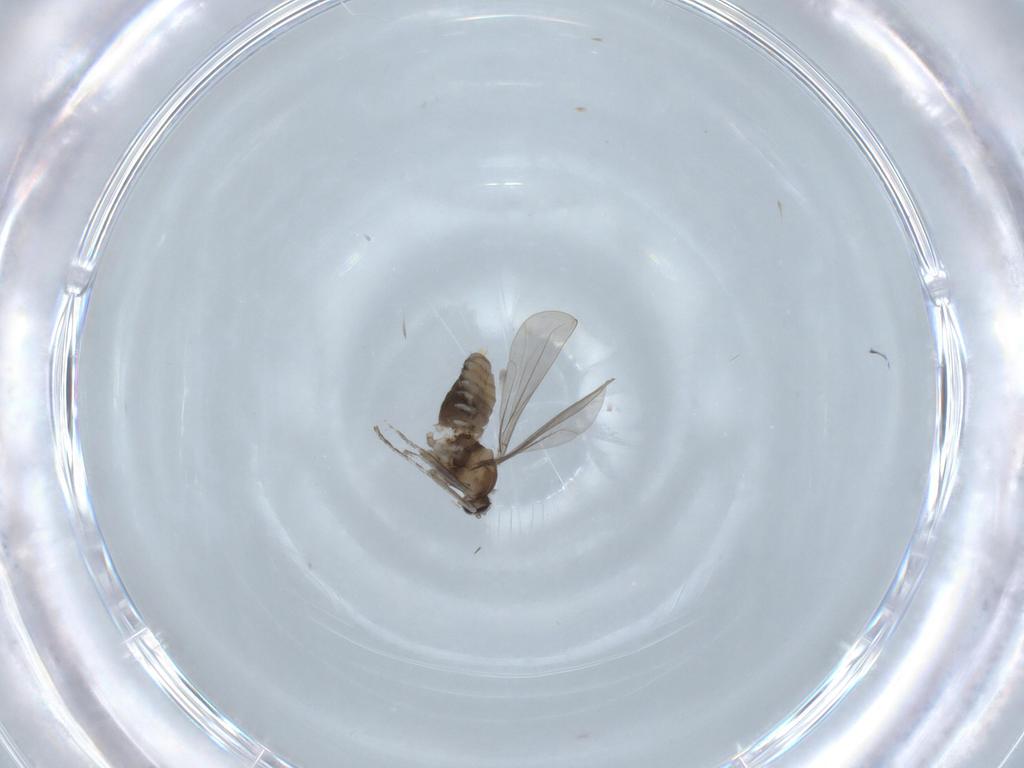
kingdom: Animalia
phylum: Arthropoda
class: Insecta
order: Diptera
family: Cecidomyiidae
